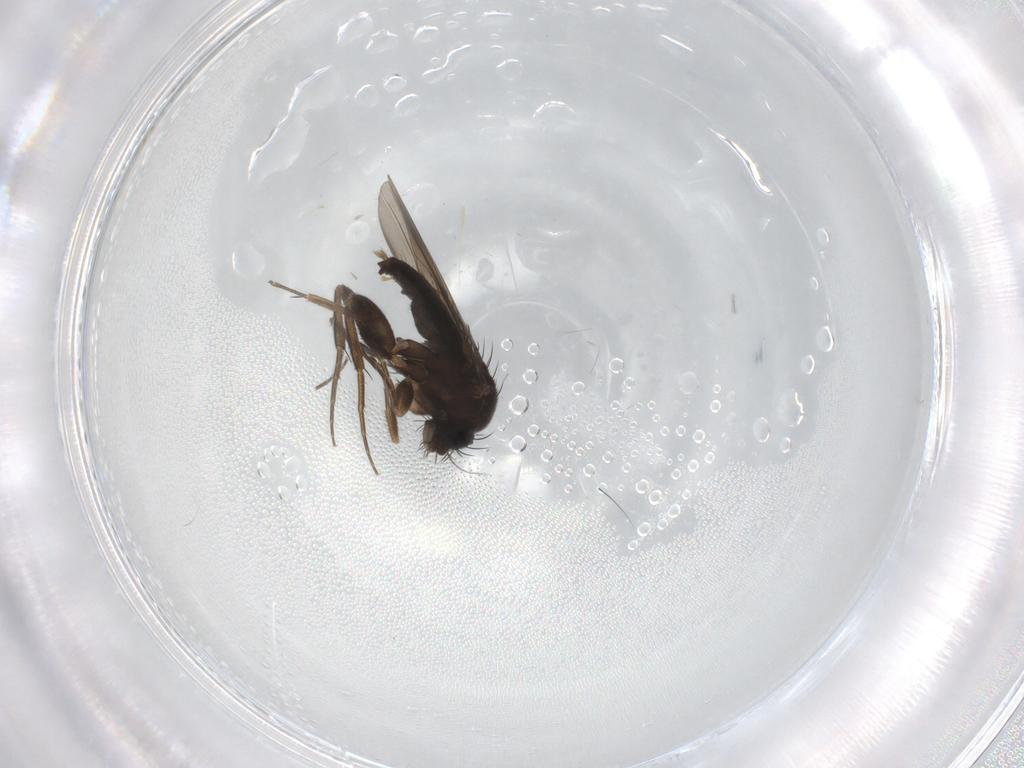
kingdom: Animalia
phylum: Arthropoda
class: Insecta
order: Diptera
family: Phoridae
